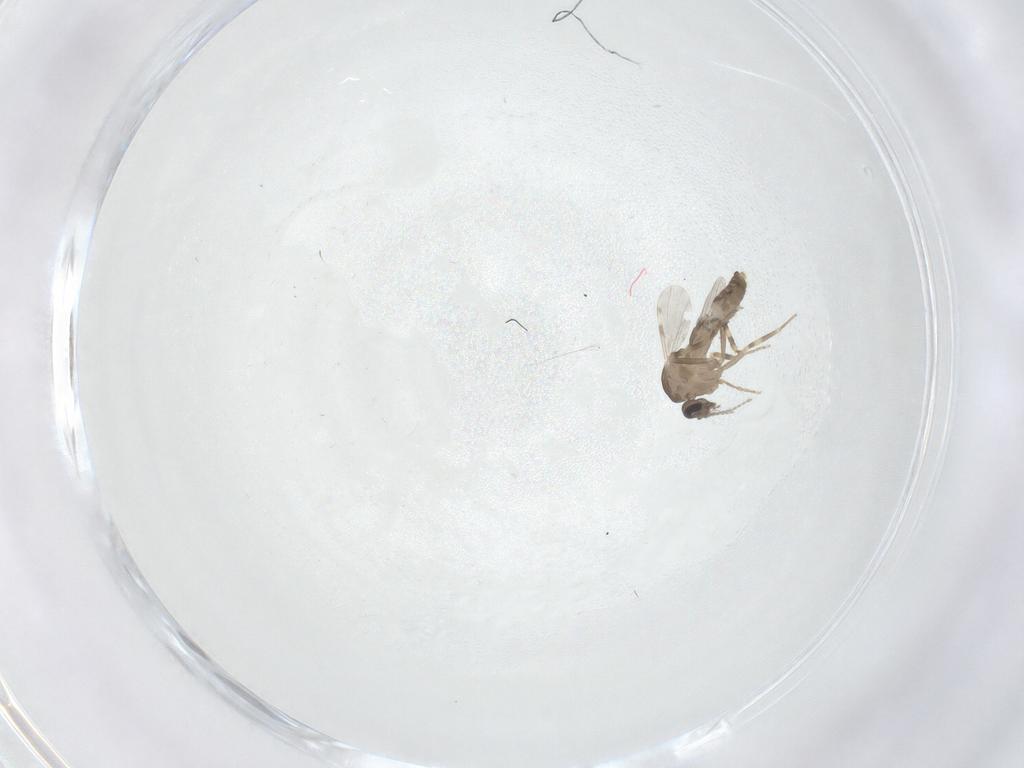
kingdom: Animalia
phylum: Arthropoda
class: Insecta
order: Diptera
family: Ceratopogonidae
